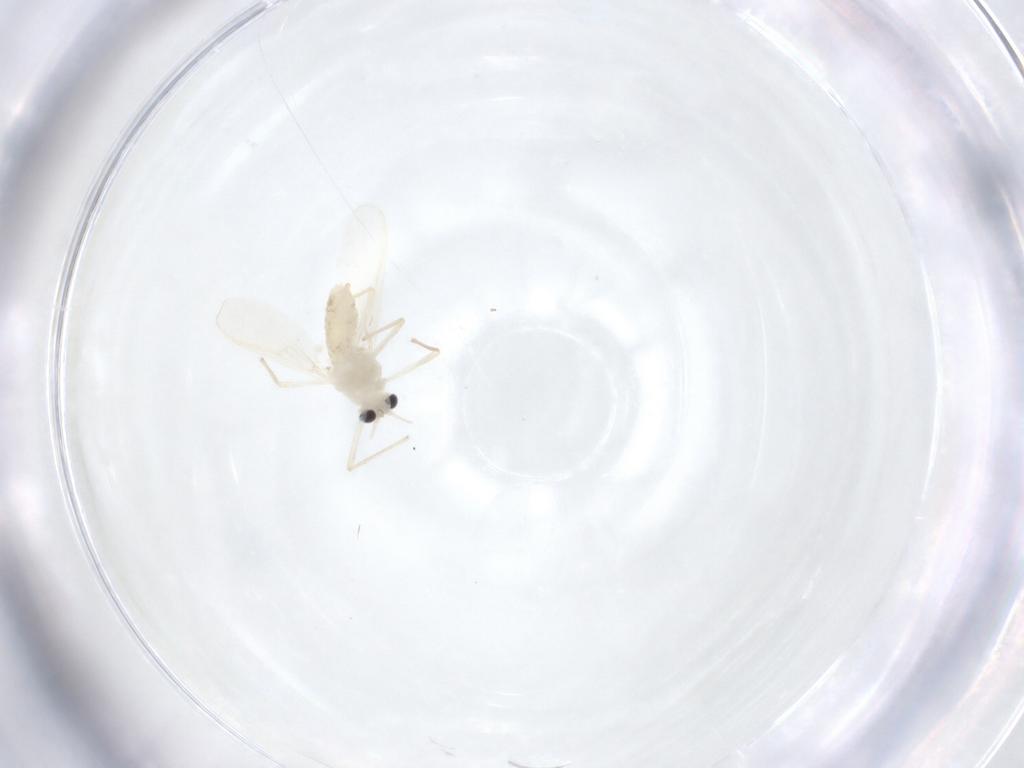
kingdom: Animalia
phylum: Arthropoda
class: Insecta
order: Diptera
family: Culicidae
